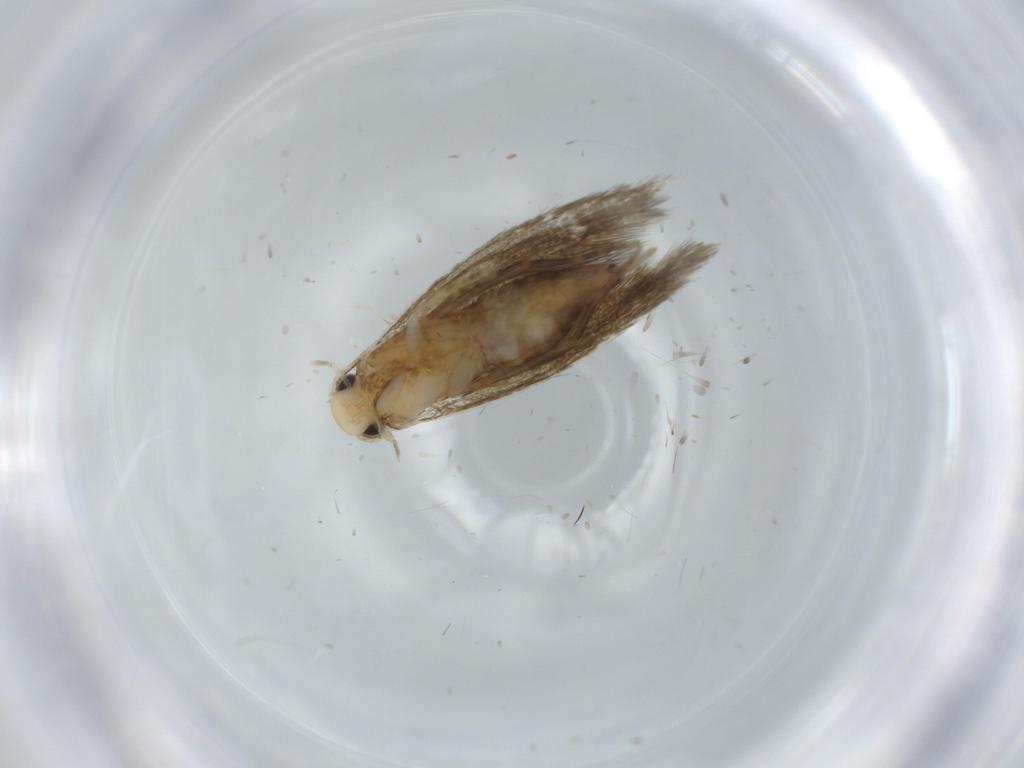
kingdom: Animalia
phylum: Arthropoda
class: Insecta
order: Lepidoptera
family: Tineidae
